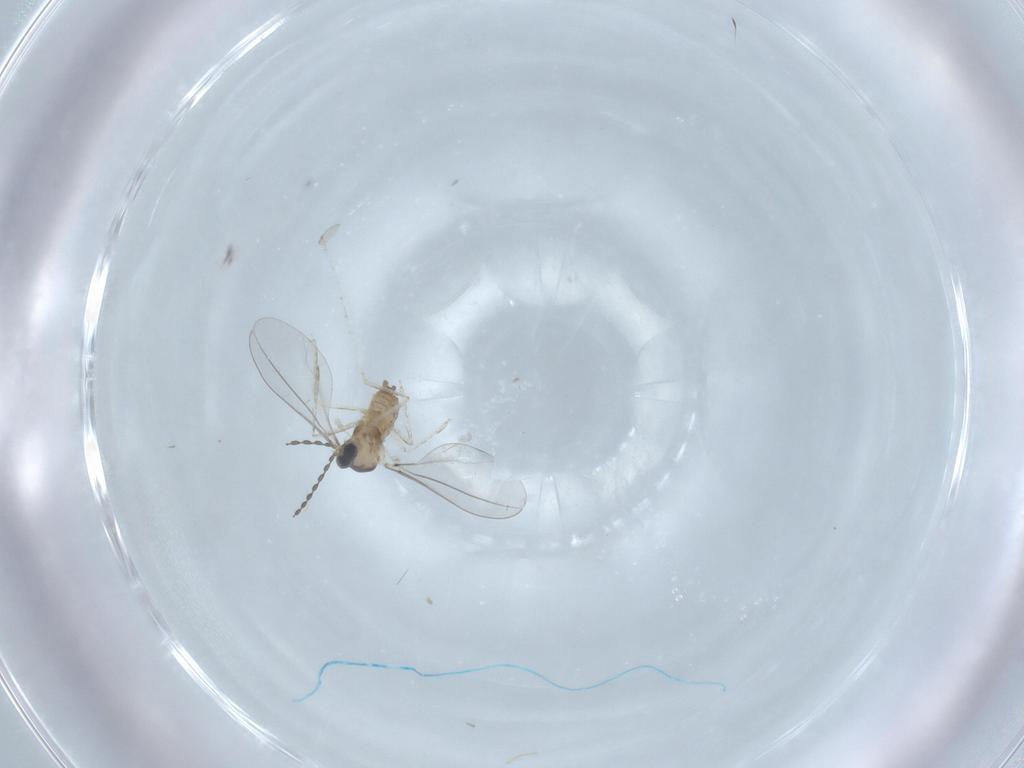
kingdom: Animalia
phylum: Arthropoda
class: Insecta
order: Diptera
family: Cecidomyiidae
